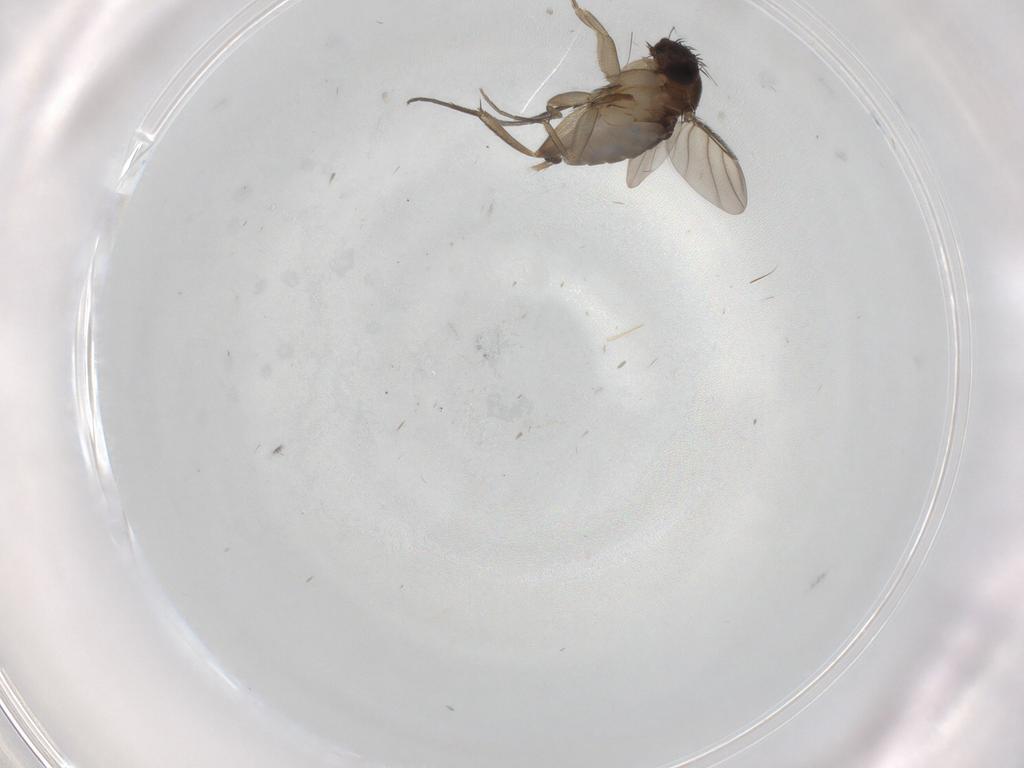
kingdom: Animalia
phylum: Arthropoda
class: Insecta
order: Diptera
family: Phoridae
